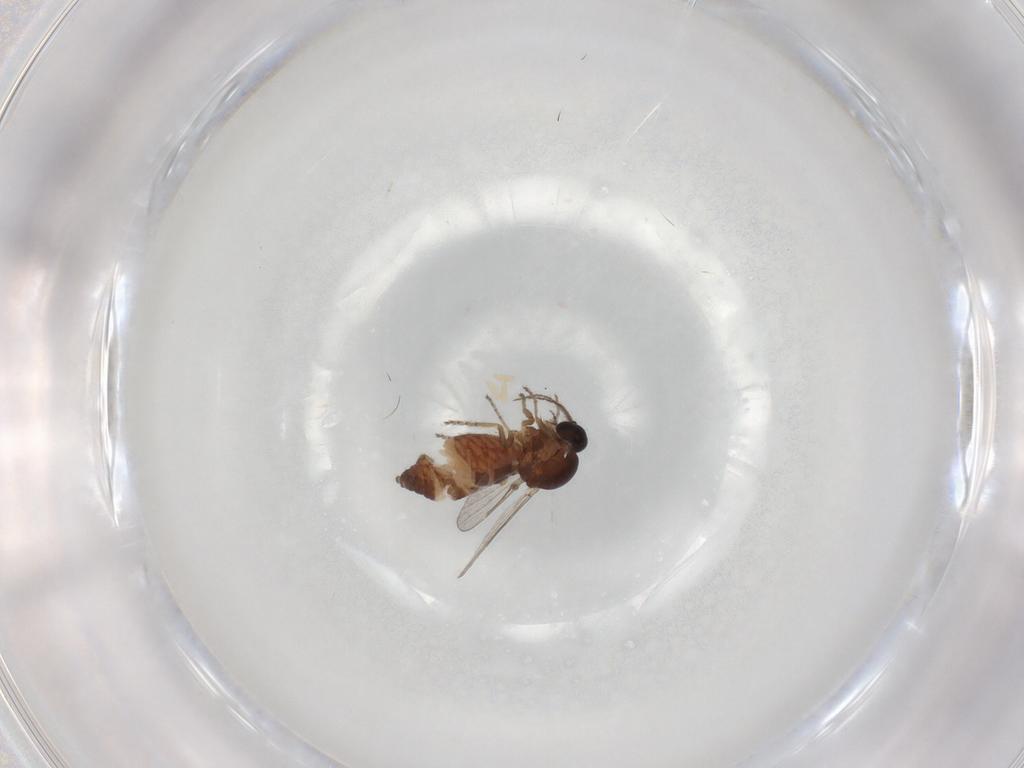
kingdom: Animalia
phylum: Arthropoda
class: Insecta
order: Diptera
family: Ceratopogonidae
